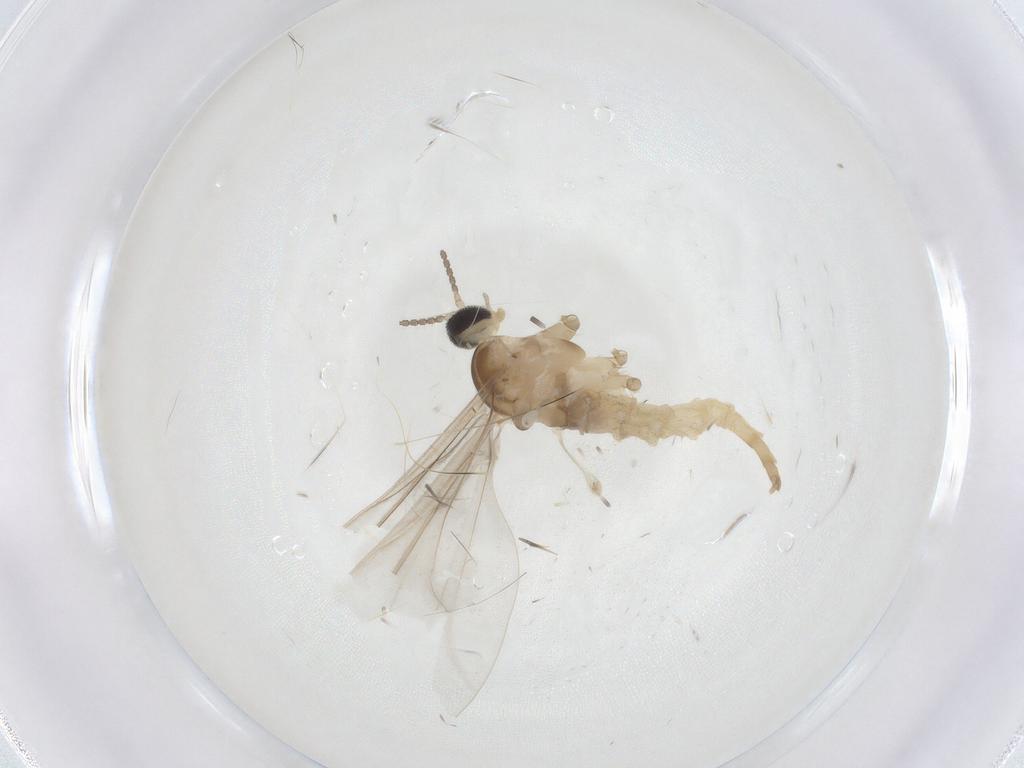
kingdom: Animalia
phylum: Arthropoda
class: Insecta
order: Diptera
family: Cecidomyiidae
